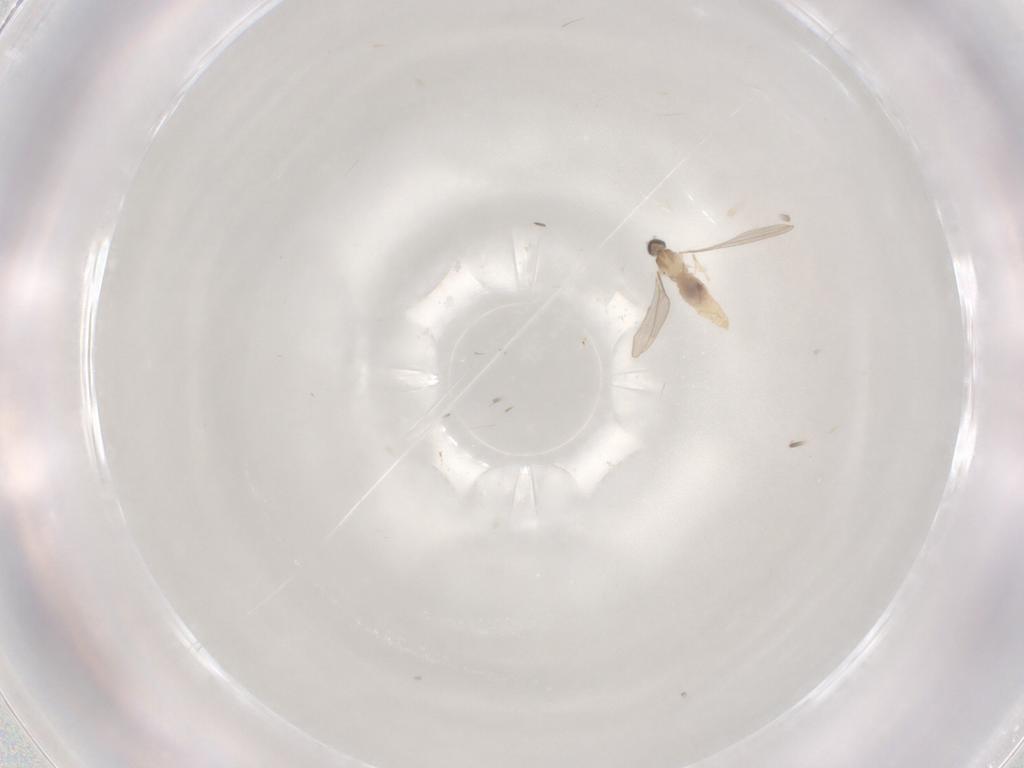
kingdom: Animalia
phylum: Arthropoda
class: Insecta
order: Diptera
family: Cecidomyiidae
